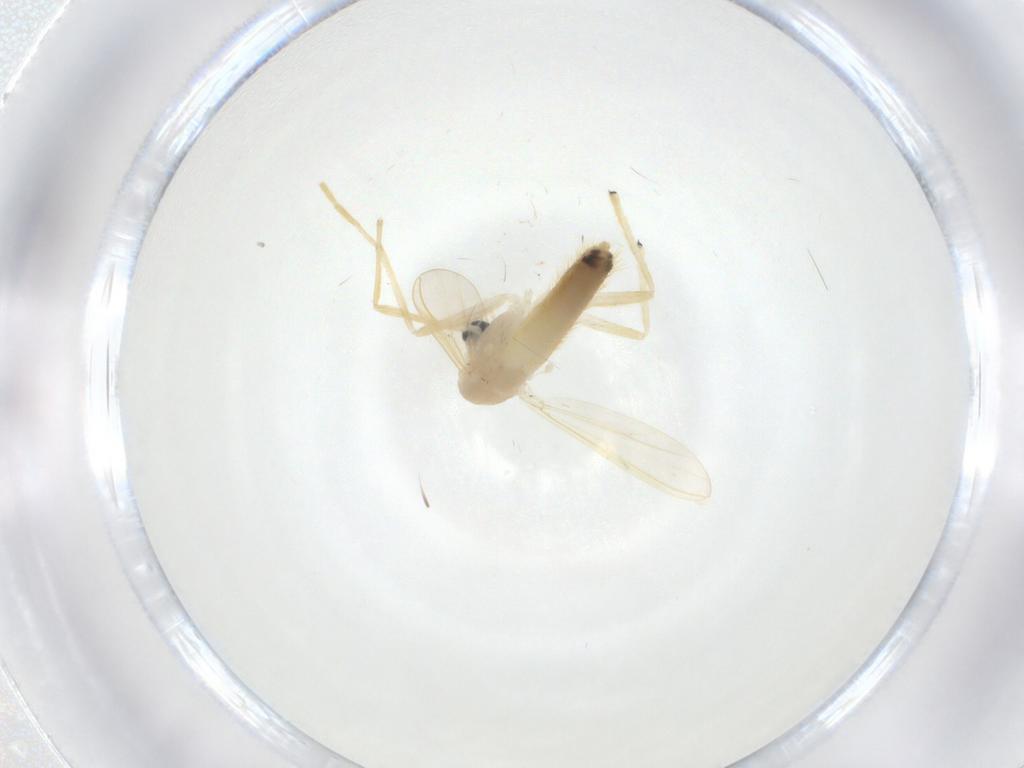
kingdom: Animalia
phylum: Arthropoda
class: Insecta
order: Diptera
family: Chironomidae
